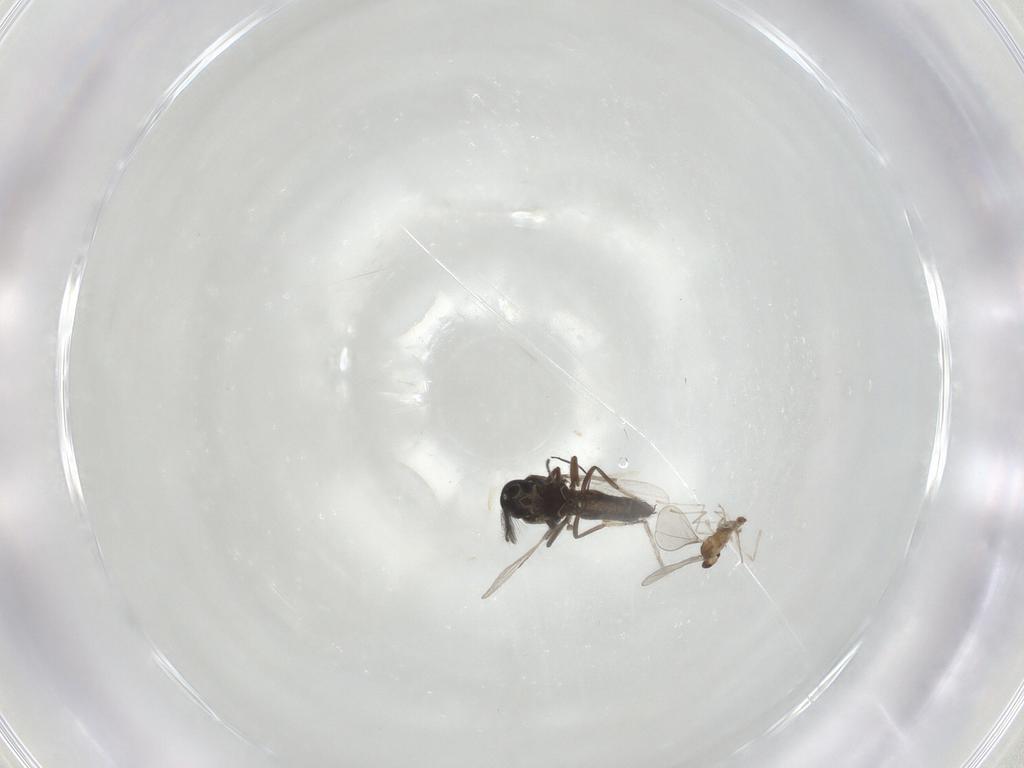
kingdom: Animalia
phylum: Arthropoda
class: Insecta
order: Diptera
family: Ceratopogonidae
